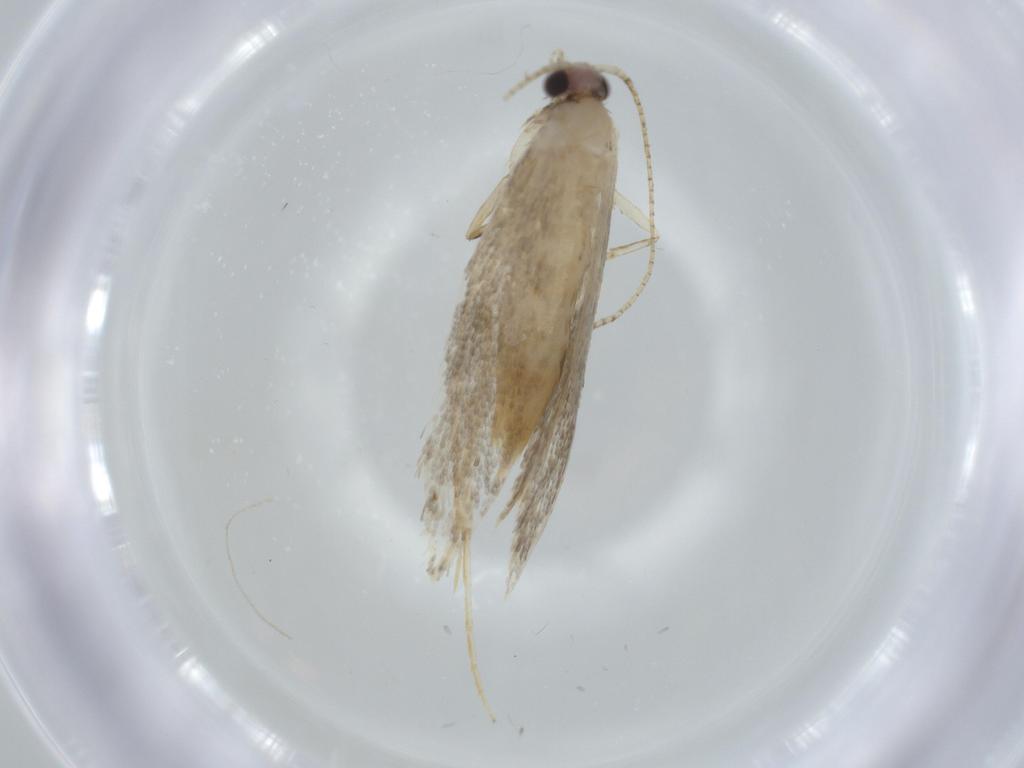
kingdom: Animalia
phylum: Arthropoda
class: Insecta
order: Lepidoptera
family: Tineidae
